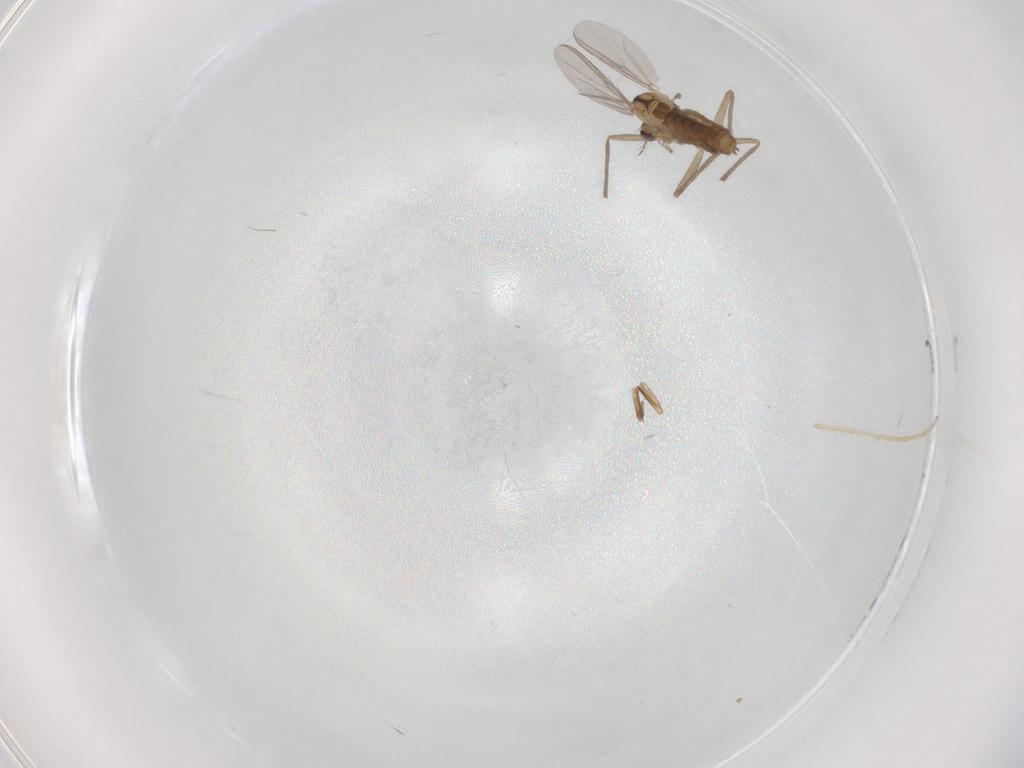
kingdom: Animalia
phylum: Arthropoda
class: Insecta
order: Diptera
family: Chironomidae
